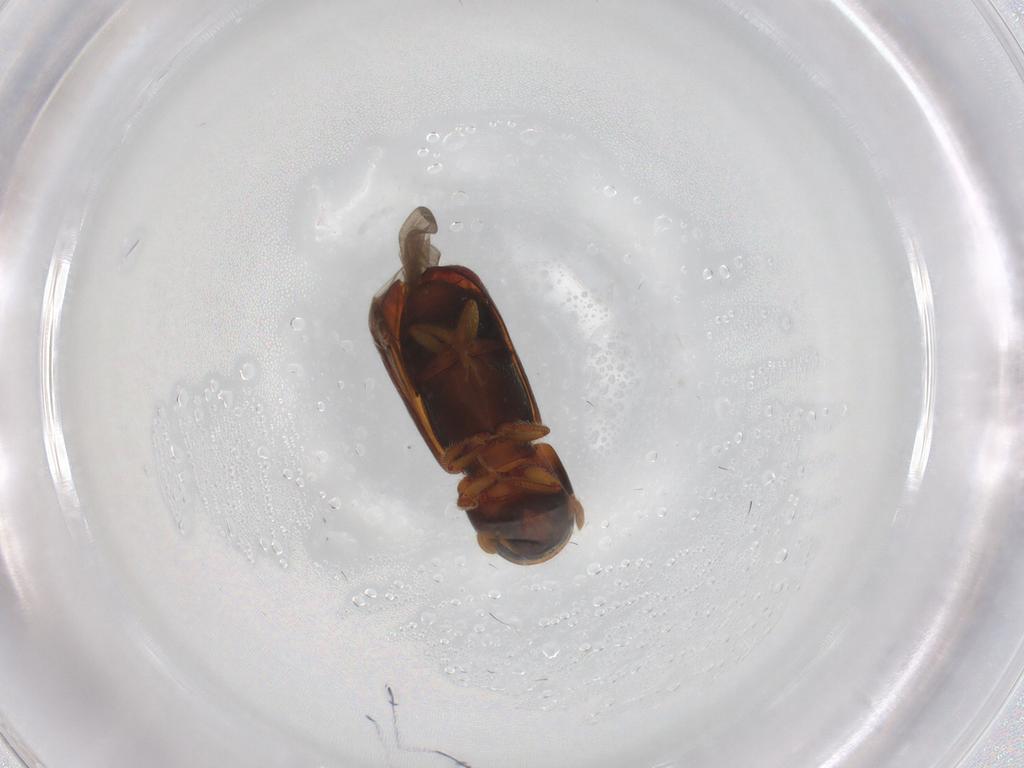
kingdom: Animalia
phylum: Arthropoda
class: Insecta
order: Coleoptera
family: Curculionidae
